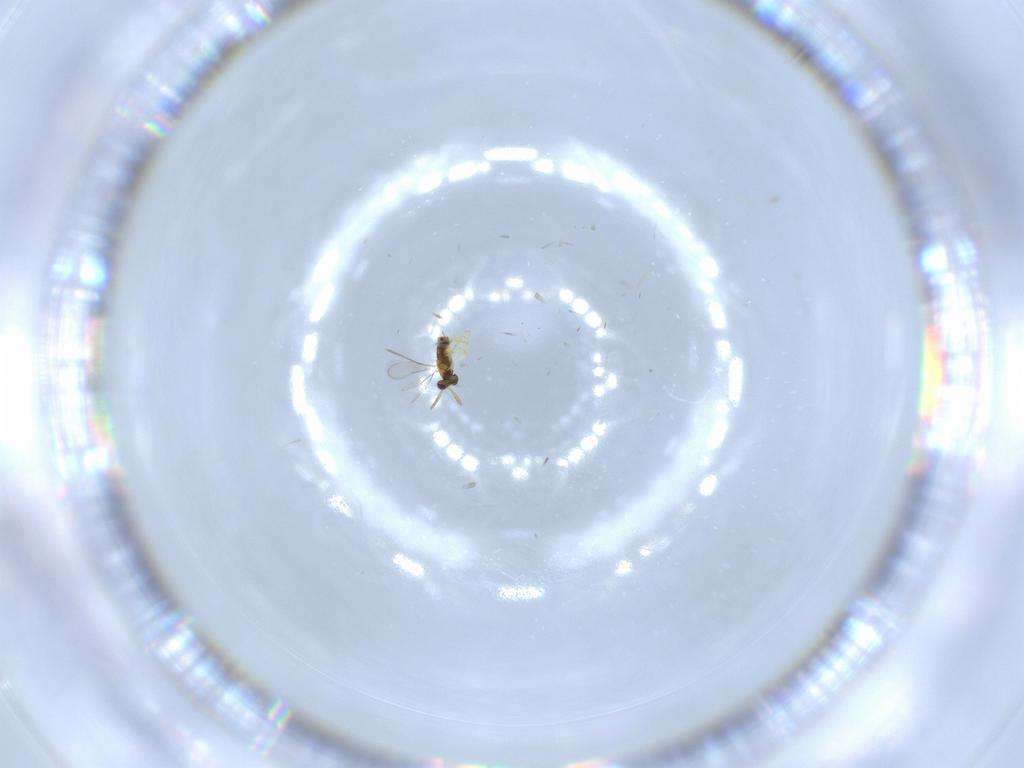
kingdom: Animalia
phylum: Arthropoda
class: Insecta
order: Hymenoptera
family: Aphelinidae
